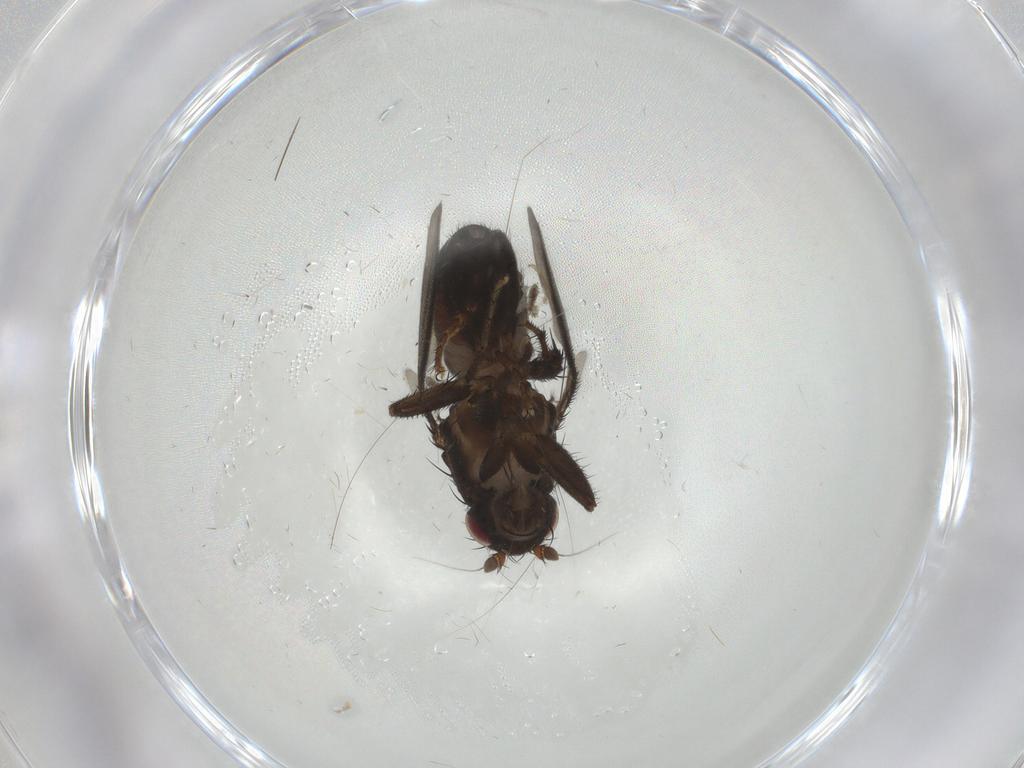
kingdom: Animalia
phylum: Arthropoda
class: Insecta
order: Diptera
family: Sphaeroceridae
